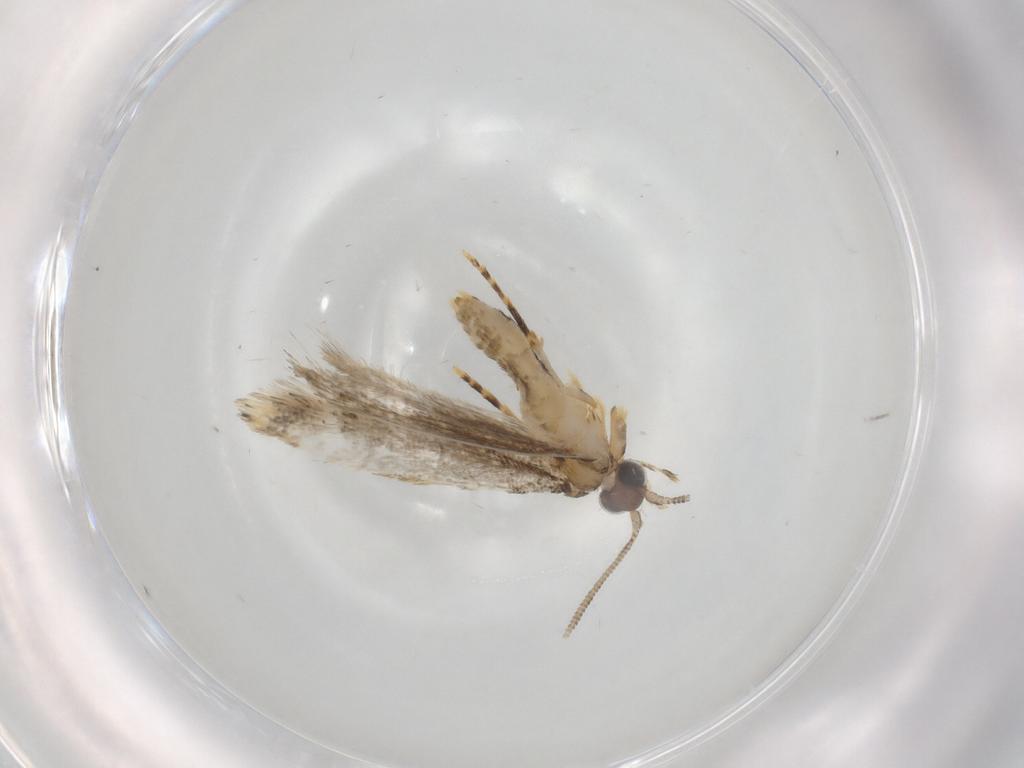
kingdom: Animalia
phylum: Arthropoda
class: Insecta
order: Lepidoptera
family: Tineidae
